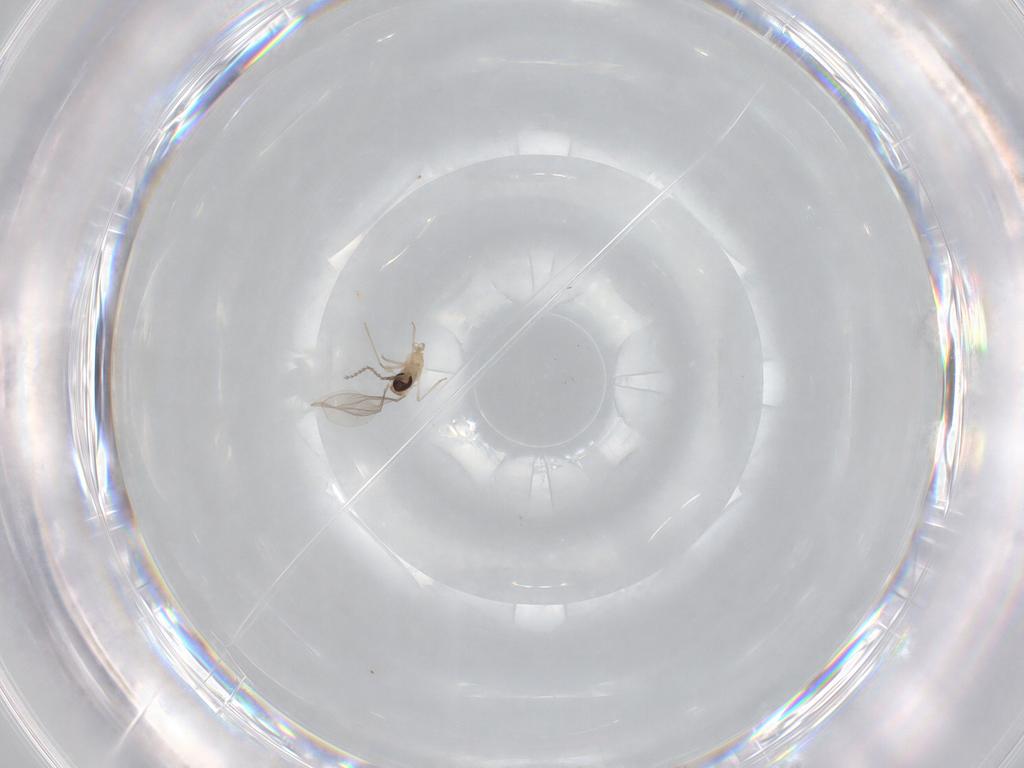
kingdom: Animalia
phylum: Arthropoda
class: Insecta
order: Diptera
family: Cecidomyiidae
